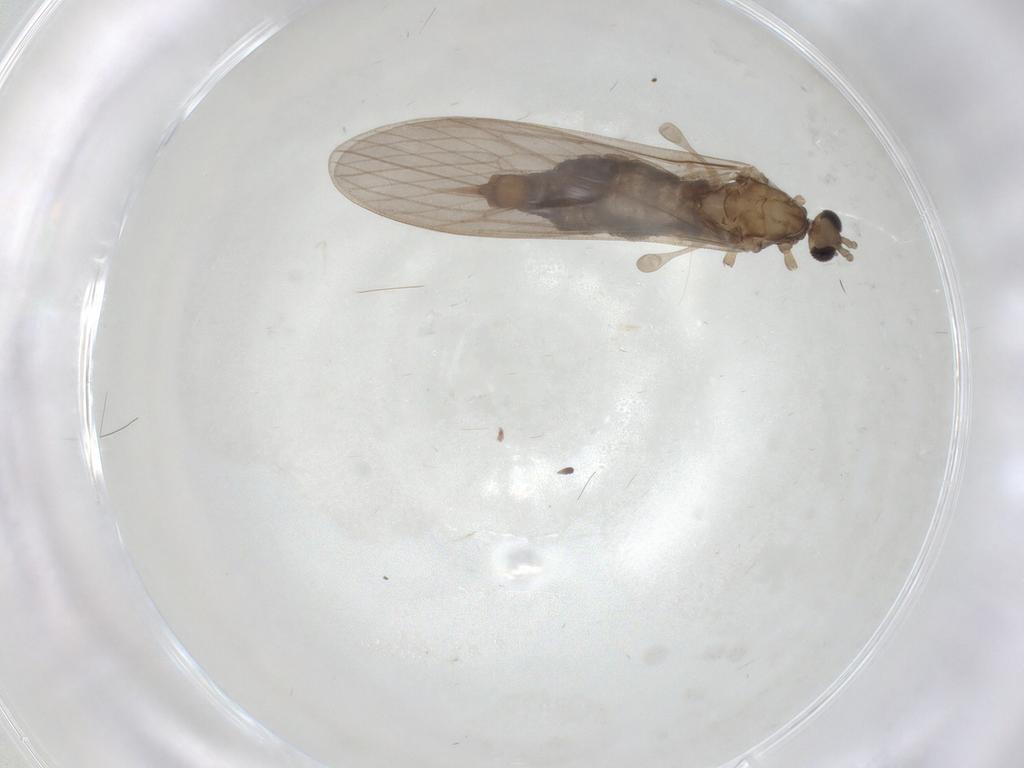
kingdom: Animalia
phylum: Arthropoda
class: Insecta
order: Diptera
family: Limoniidae
